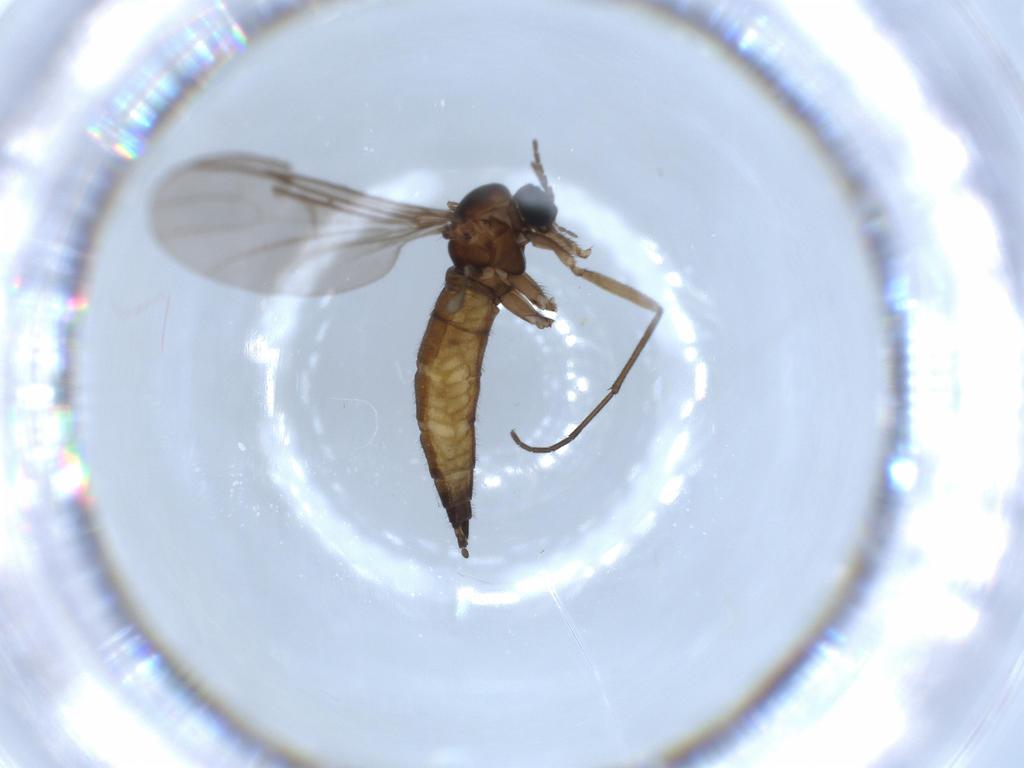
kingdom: Animalia
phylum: Arthropoda
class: Insecta
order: Diptera
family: Sciaridae
